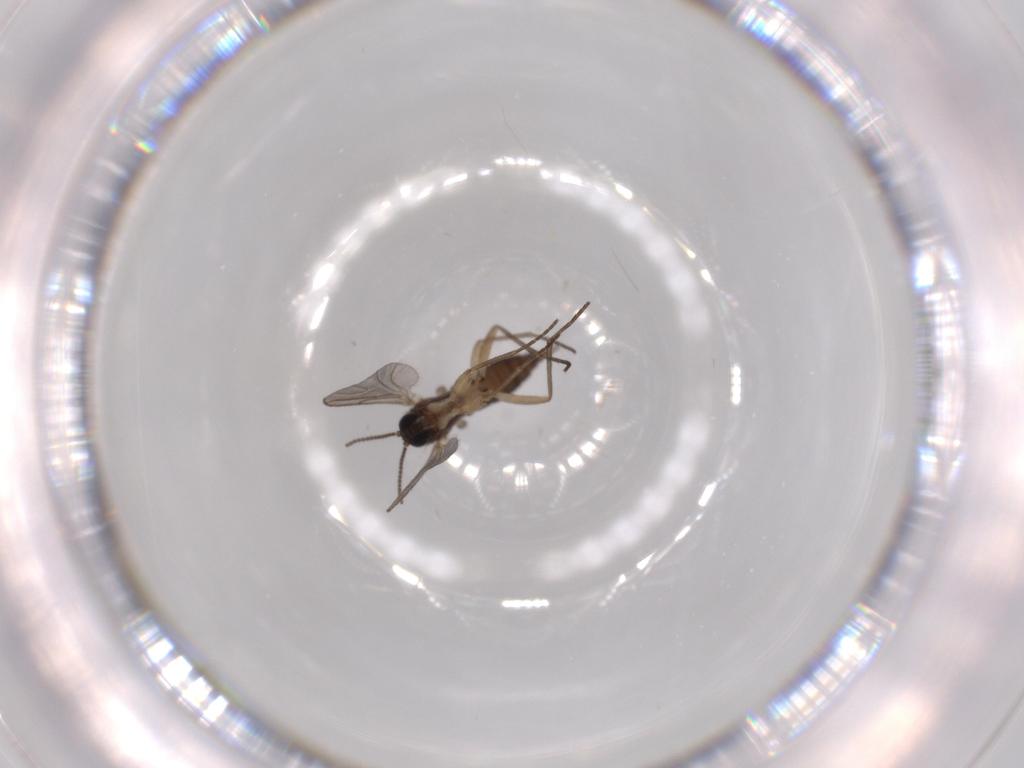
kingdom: Animalia
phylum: Arthropoda
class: Insecta
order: Diptera
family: Sciaridae
